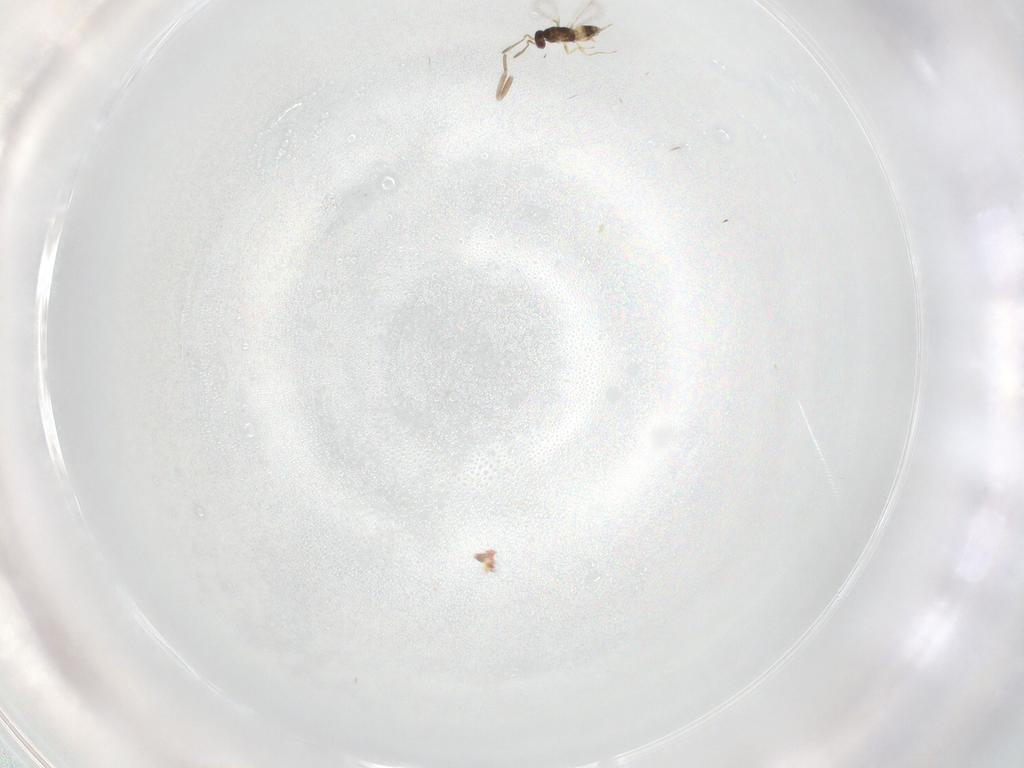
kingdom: Animalia
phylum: Arthropoda
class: Insecta
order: Hymenoptera
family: Mymaridae
